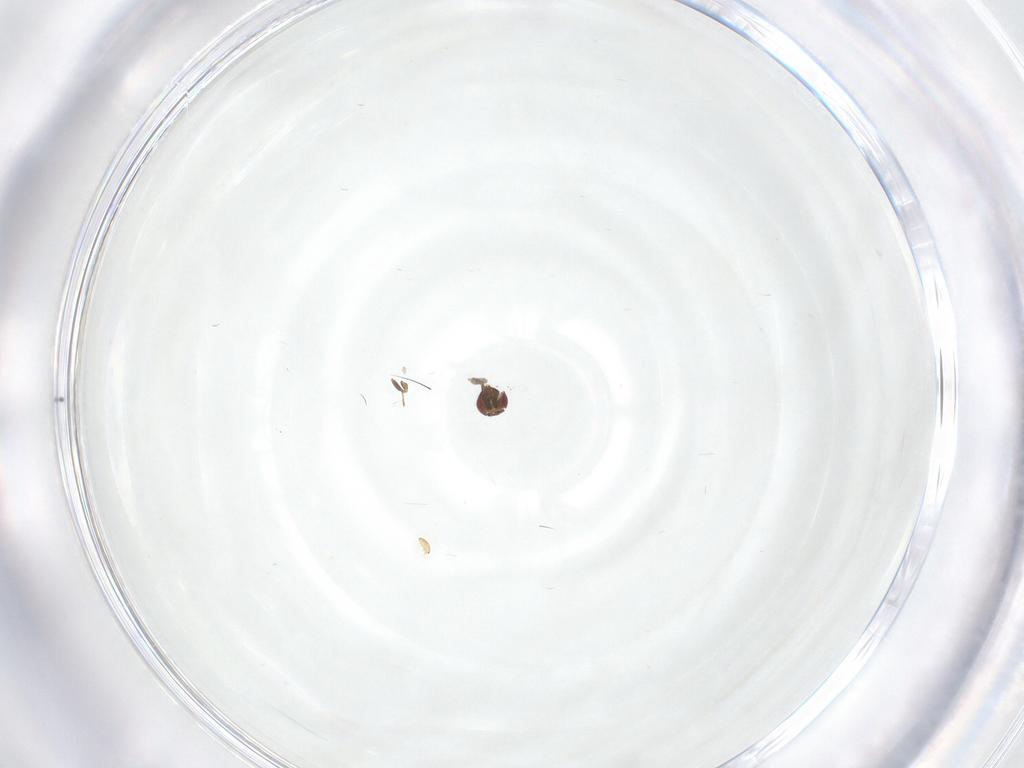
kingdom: Animalia
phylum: Arthropoda
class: Insecta
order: Hymenoptera
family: Eulophidae
